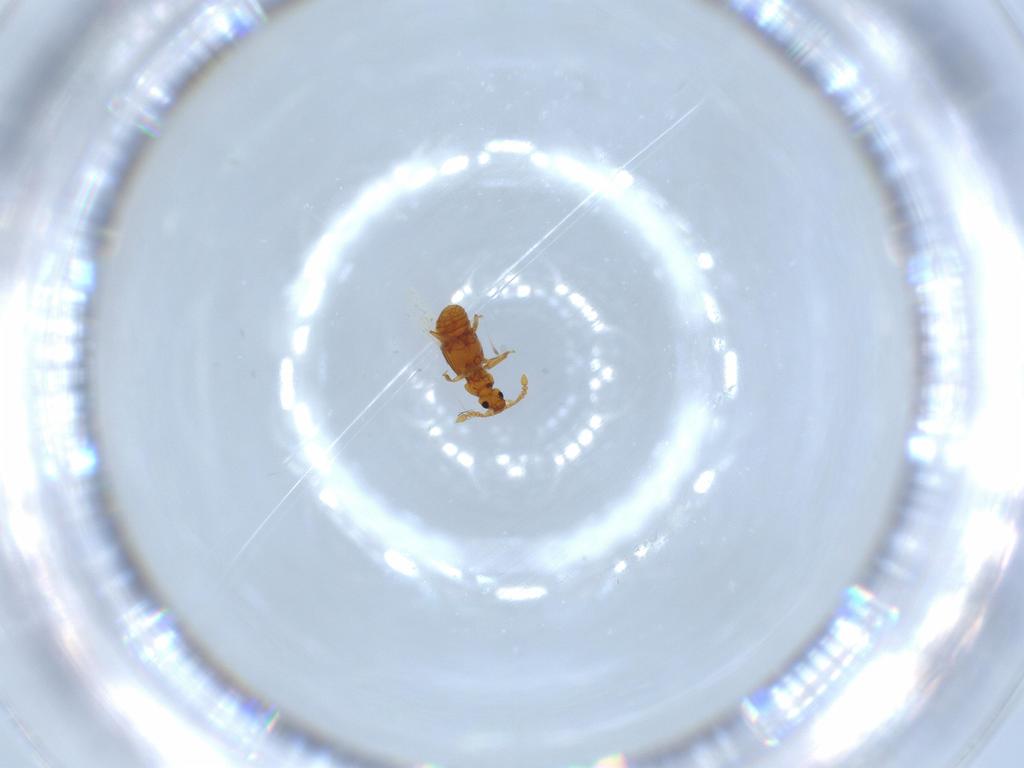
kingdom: Animalia
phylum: Arthropoda
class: Insecta
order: Coleoptera
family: Staphylinidae
